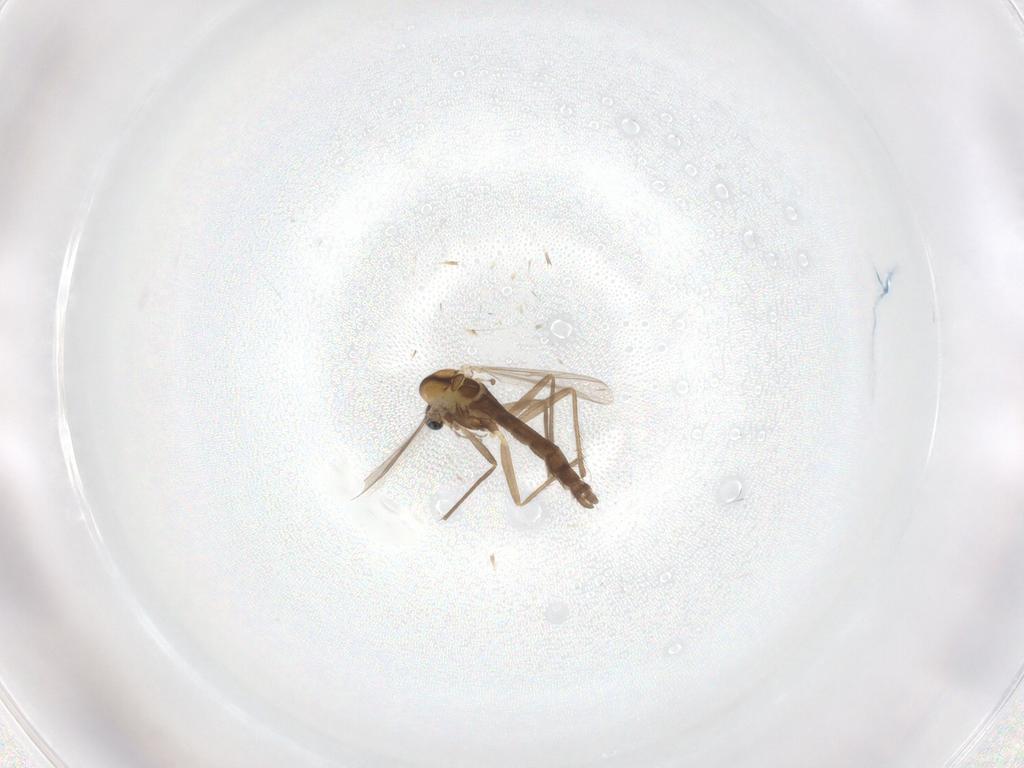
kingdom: Animalia
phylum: Arthropoda
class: Insecta
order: Diptera
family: Chironomidae
